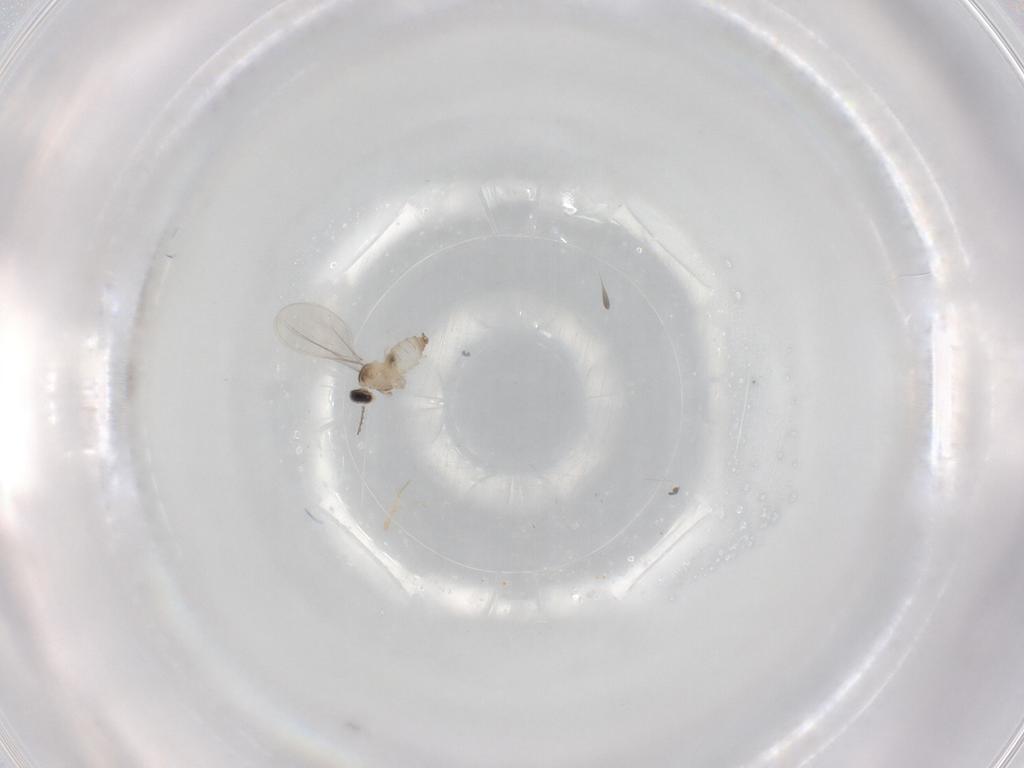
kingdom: Animalia
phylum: Arthropoda
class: Insecta
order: Diptera
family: Cecidomyiidae
